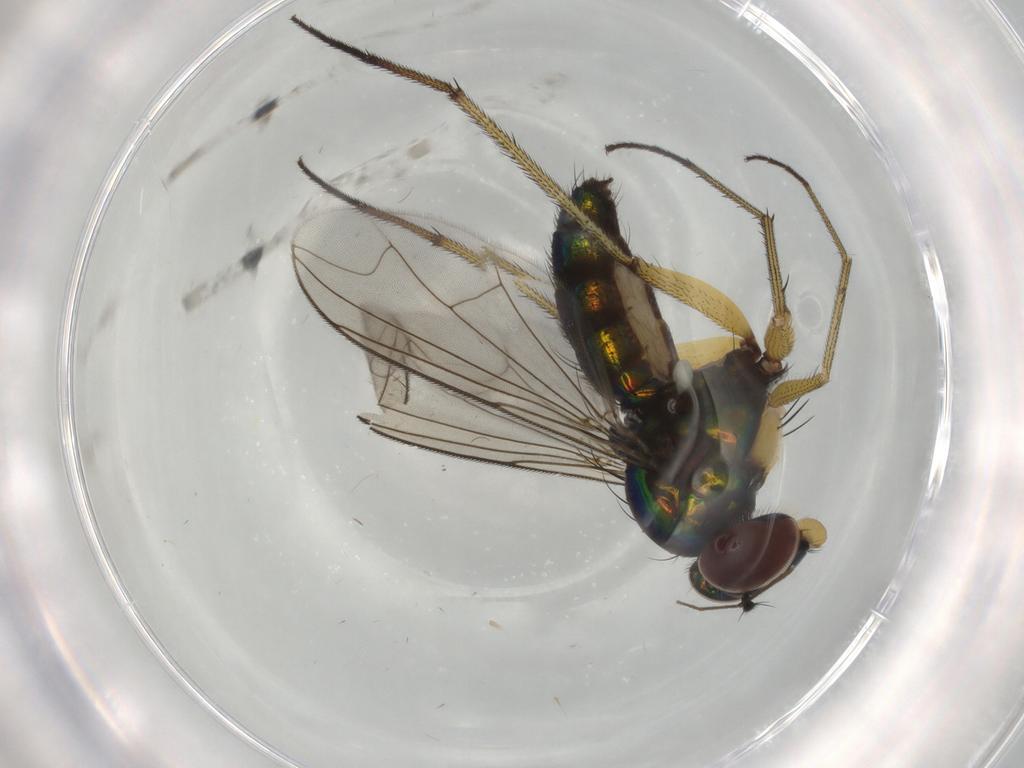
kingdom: Animalia
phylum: Arthropoda
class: Insecta
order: Diptera
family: Dolichopodidae
